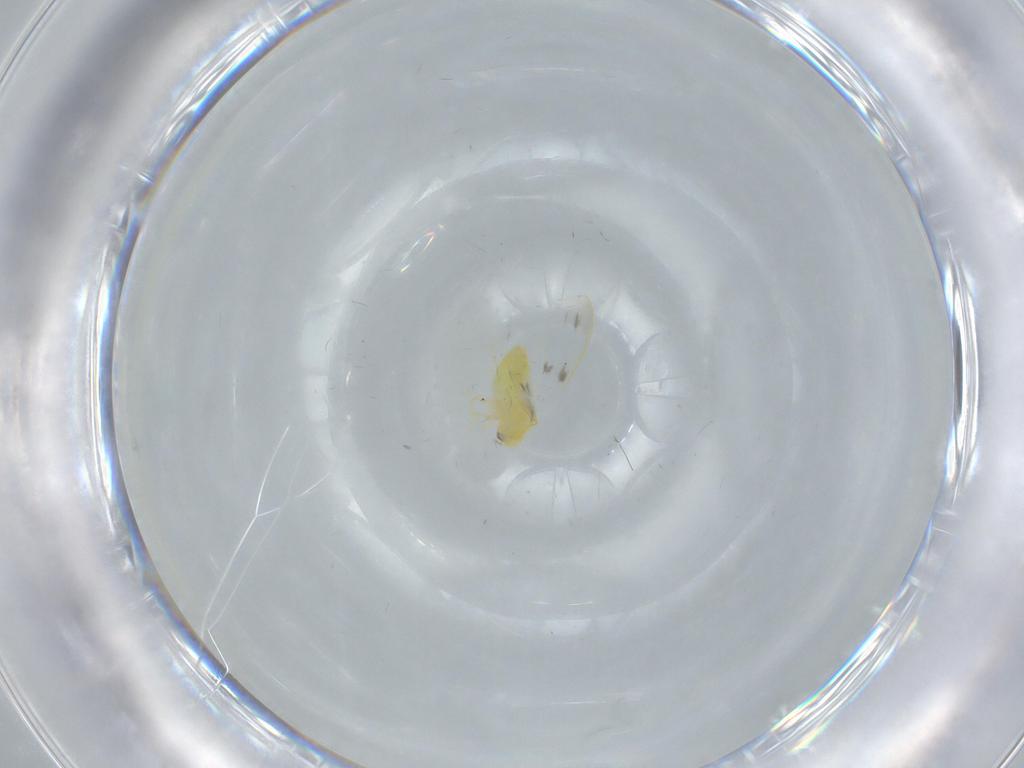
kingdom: Animalia
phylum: Arthropoda
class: Insecta
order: Hemiptera
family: Aleyrodidae
